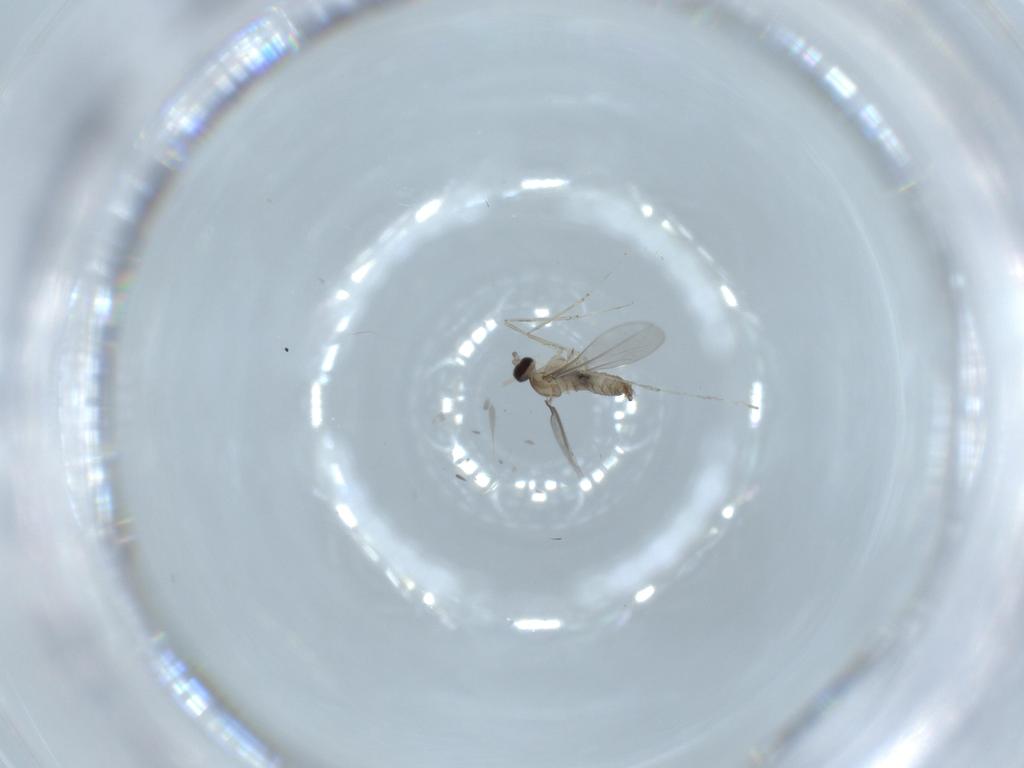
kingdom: Animalia
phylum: Arthropoda
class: Insecta
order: Diptera
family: Cecidomyiidae
